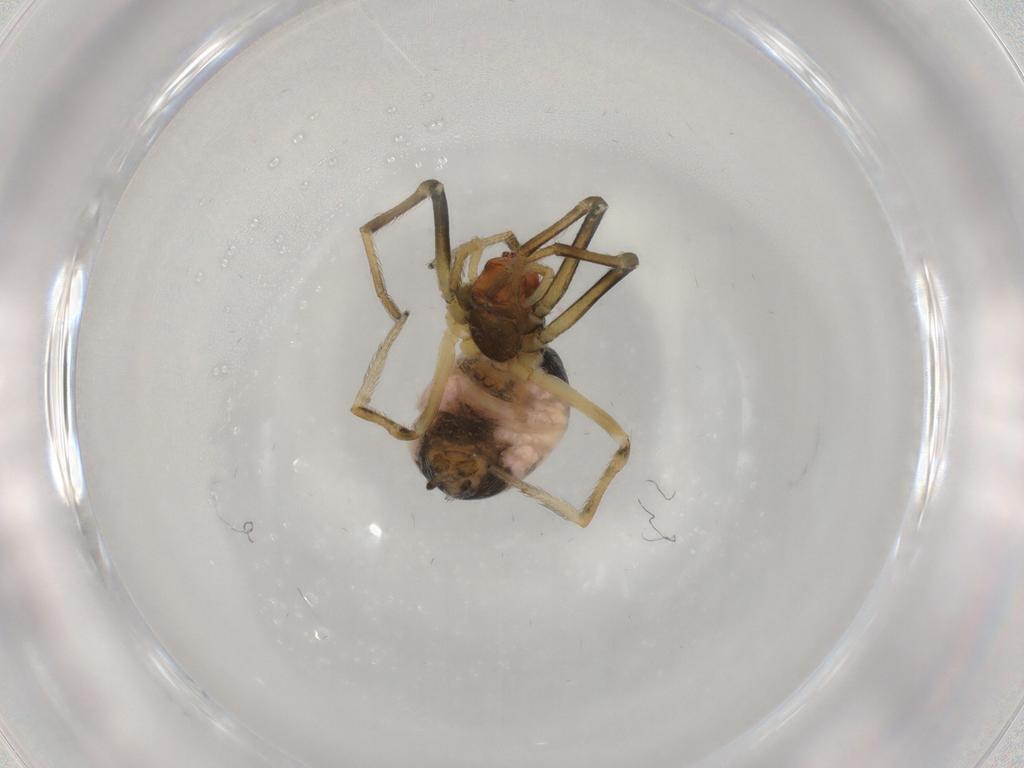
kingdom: Animalia
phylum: Arthropoda
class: Arachnida
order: Araneae
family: Dictynidae
